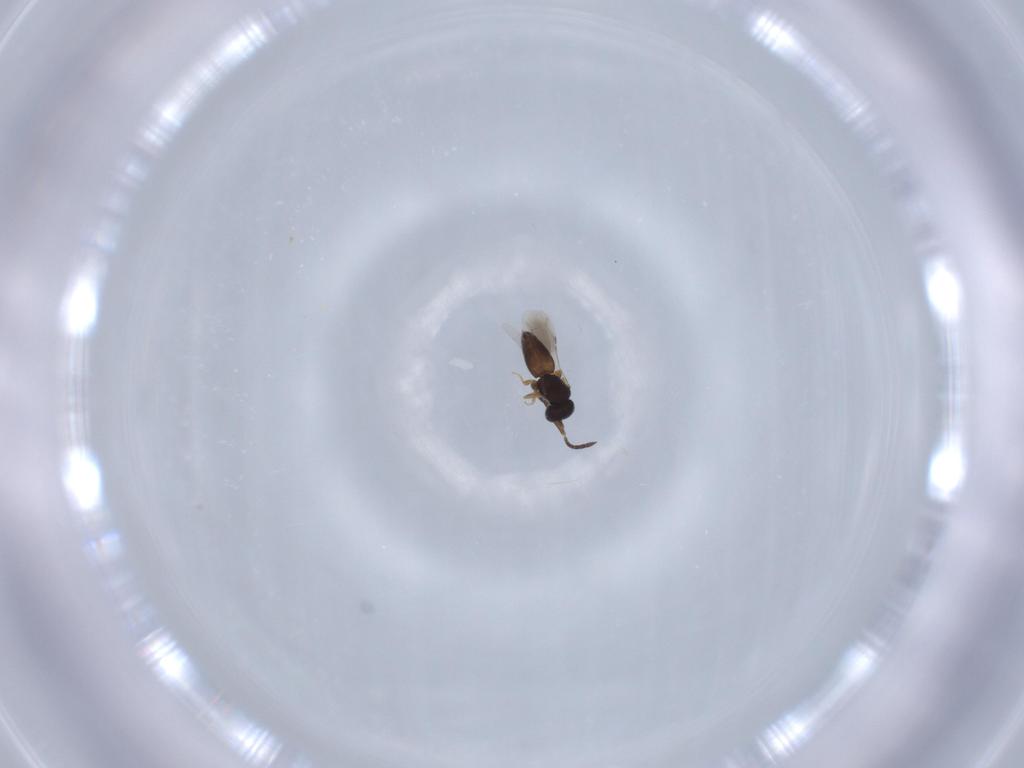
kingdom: Animalia
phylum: Arthropoda
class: Insecta
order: Hymenoptera
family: Ceraphronidae
